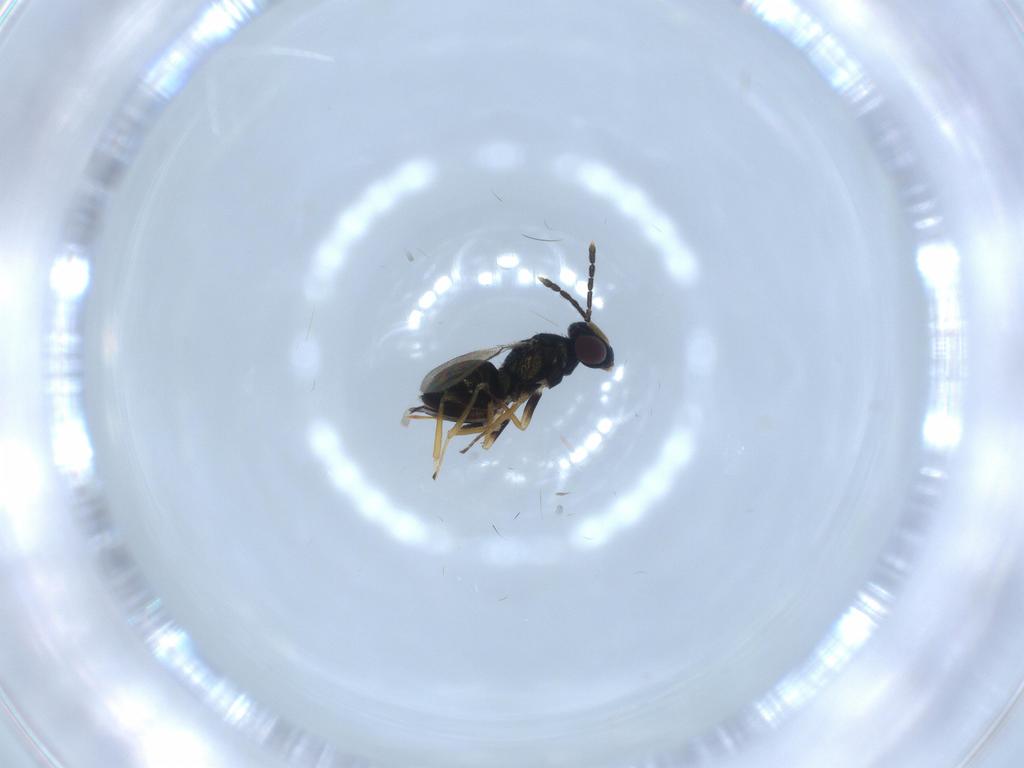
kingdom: Animalia
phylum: Arthropoda
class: Insecta
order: Hymenoptera
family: Eulophidae
